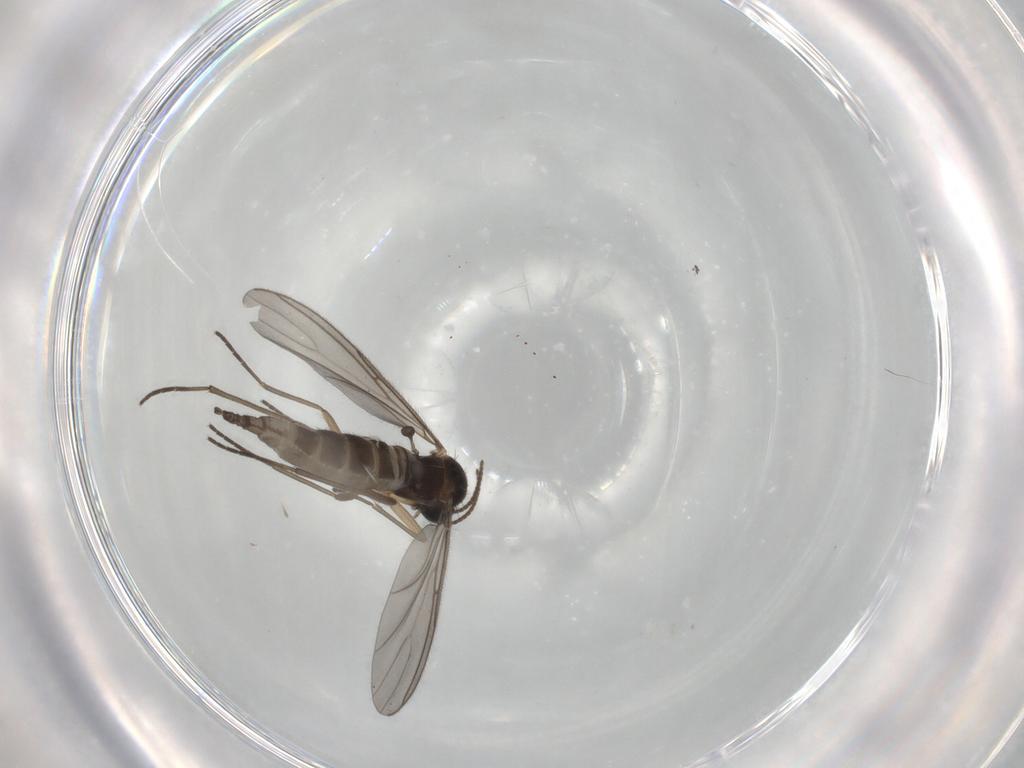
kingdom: Animalia
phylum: Arthropoda
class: Insecta
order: Diptera
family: Sciaridae
